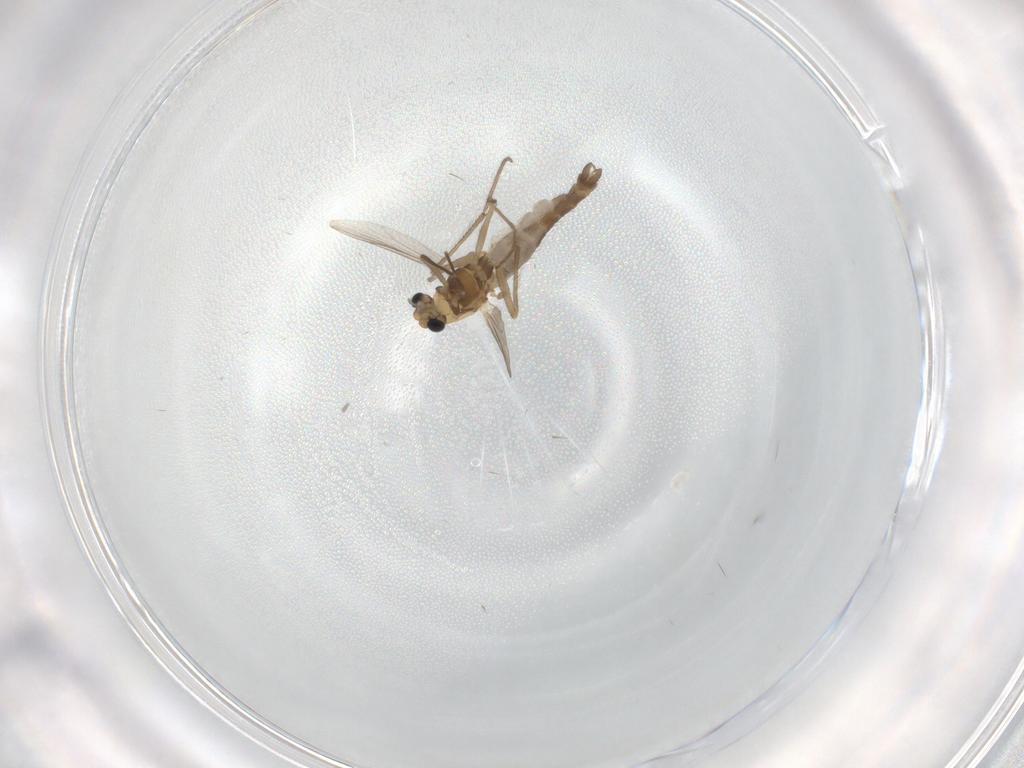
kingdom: Animalia
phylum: Arthropoda
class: Insecta
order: Diptera
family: Chironomidae
